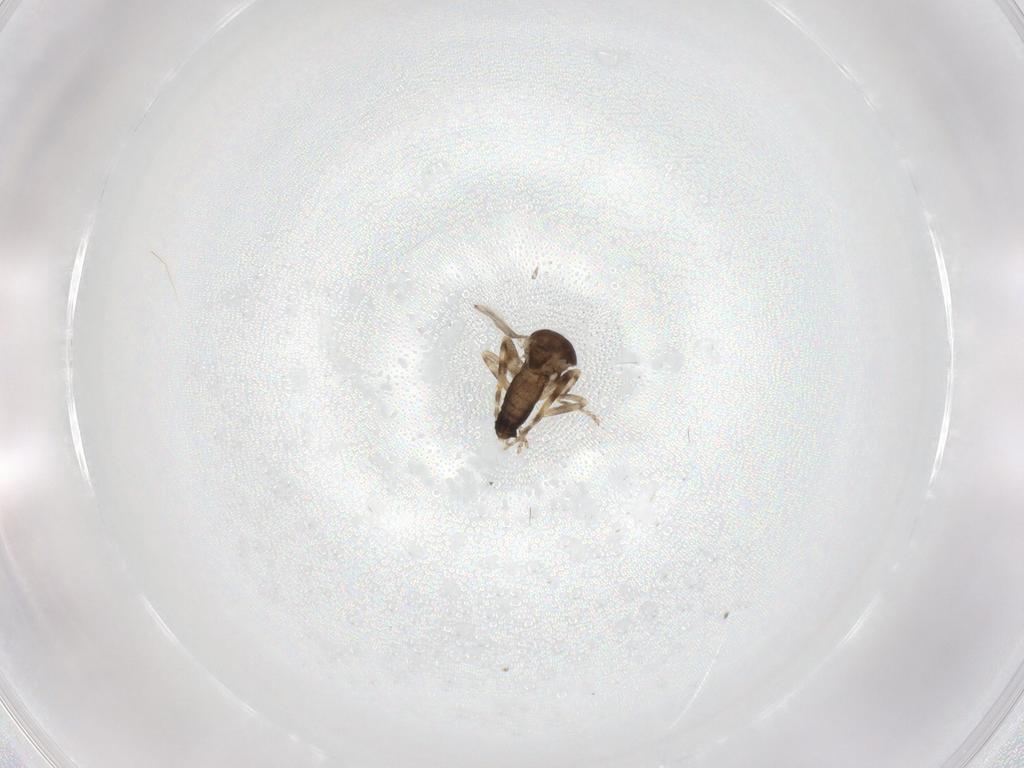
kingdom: Animalia
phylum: Arthropoda
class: Insecta
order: Diptera
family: Ceratopogonidae
